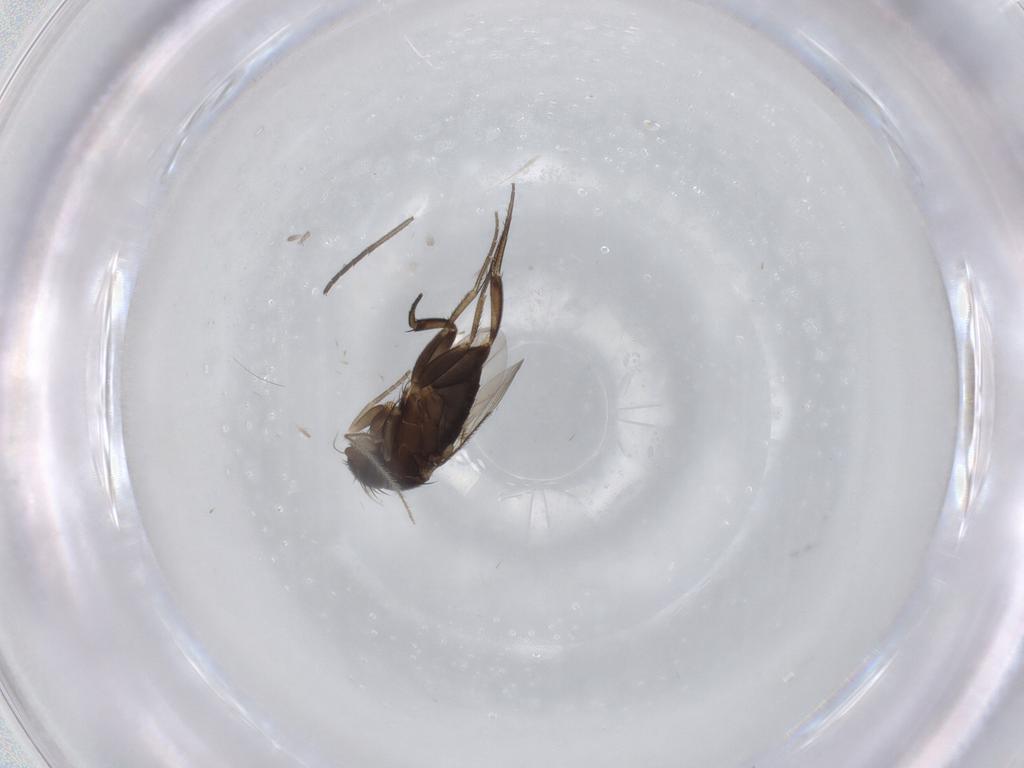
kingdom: Animalia
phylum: Arthropoda
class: Insecta
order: Diptera
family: Phoridae
